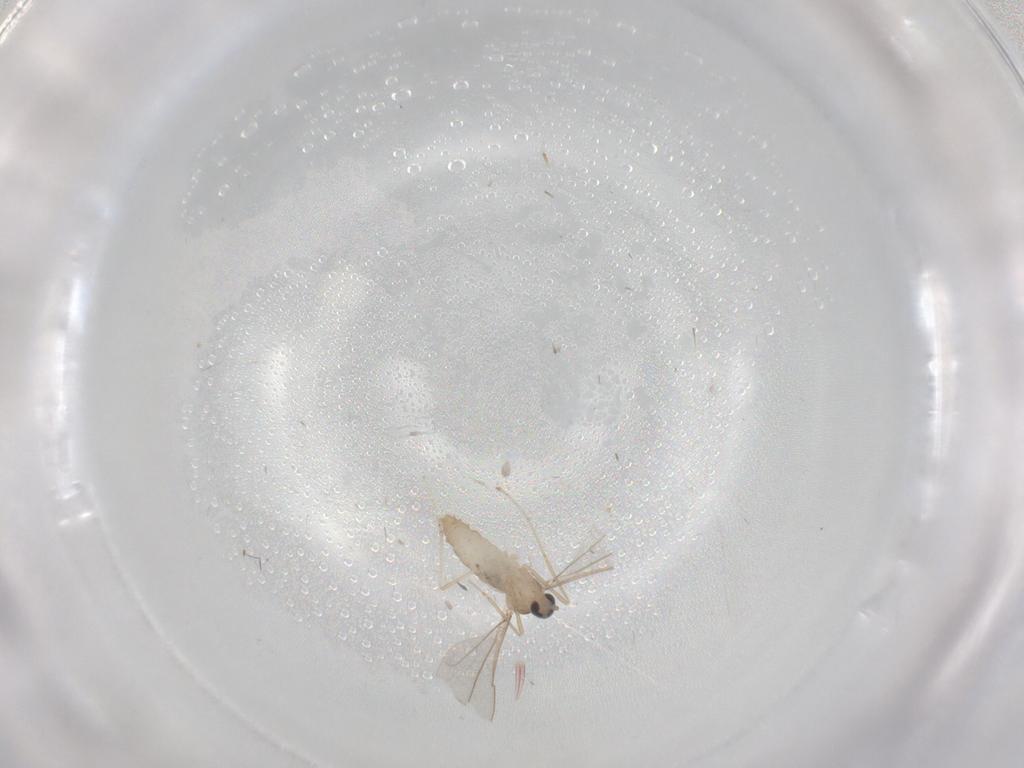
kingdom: Animalia
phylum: Arthropoda
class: Insecta
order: Diptera
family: Cecidomyiidae
